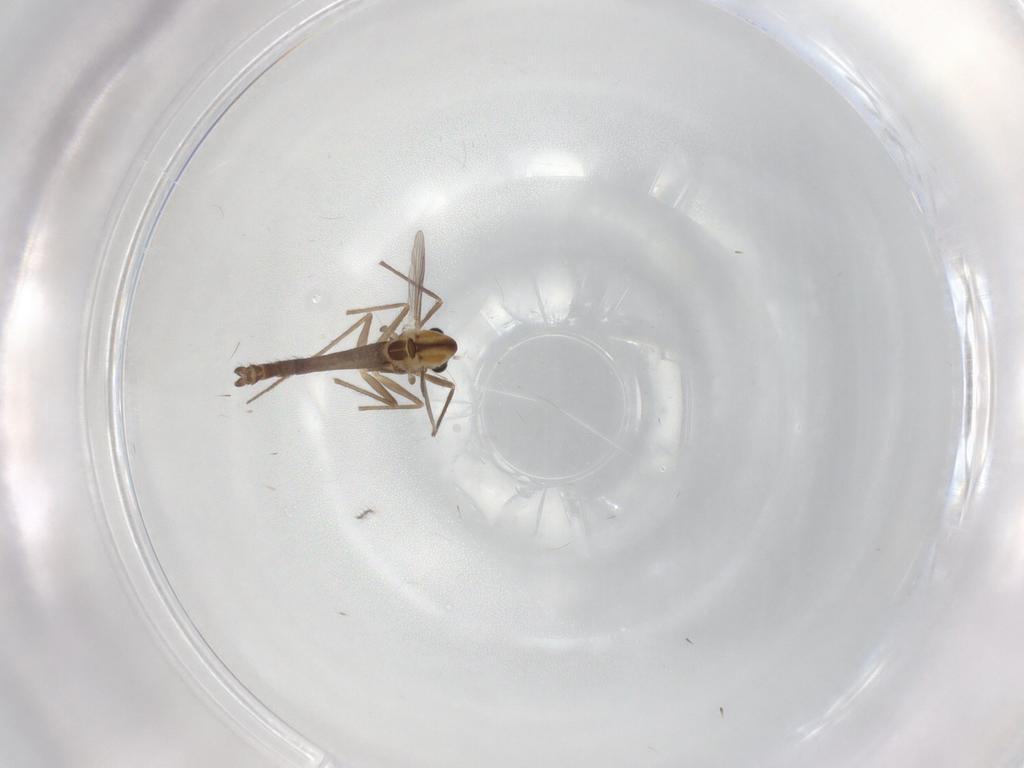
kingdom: Animalia
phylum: Arthropoda
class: Insecta
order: Diptera
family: Chironomidae
